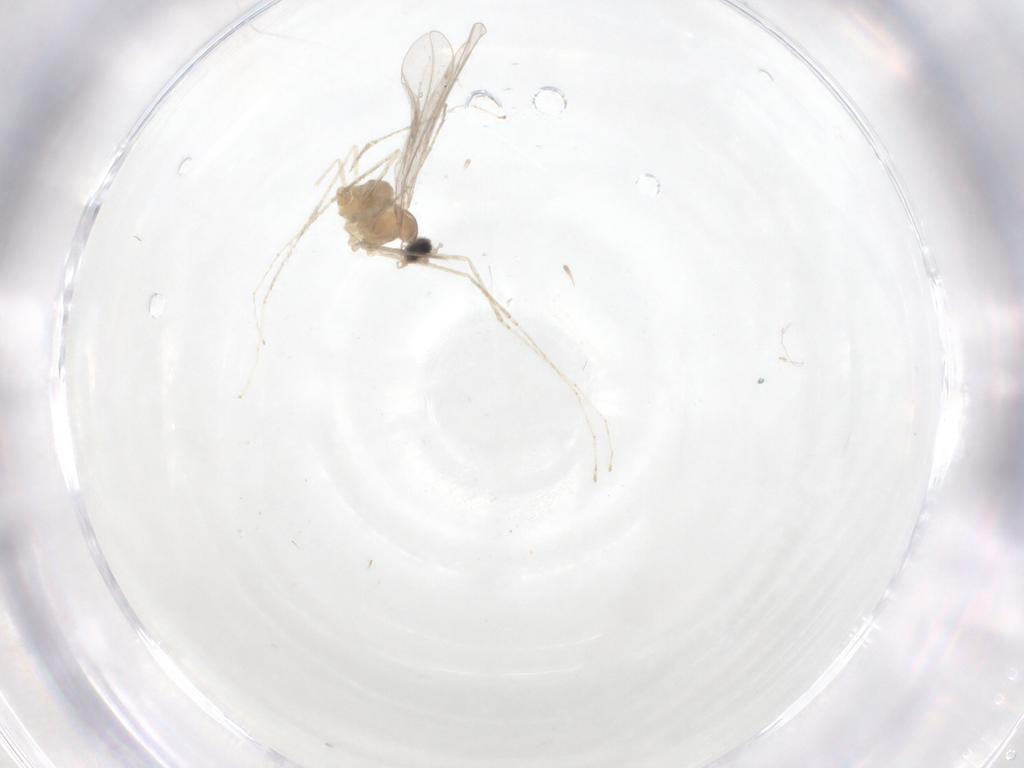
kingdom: Animalia
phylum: Arthropoda
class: Insecta
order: Diptera
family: Cecidomyiidae
